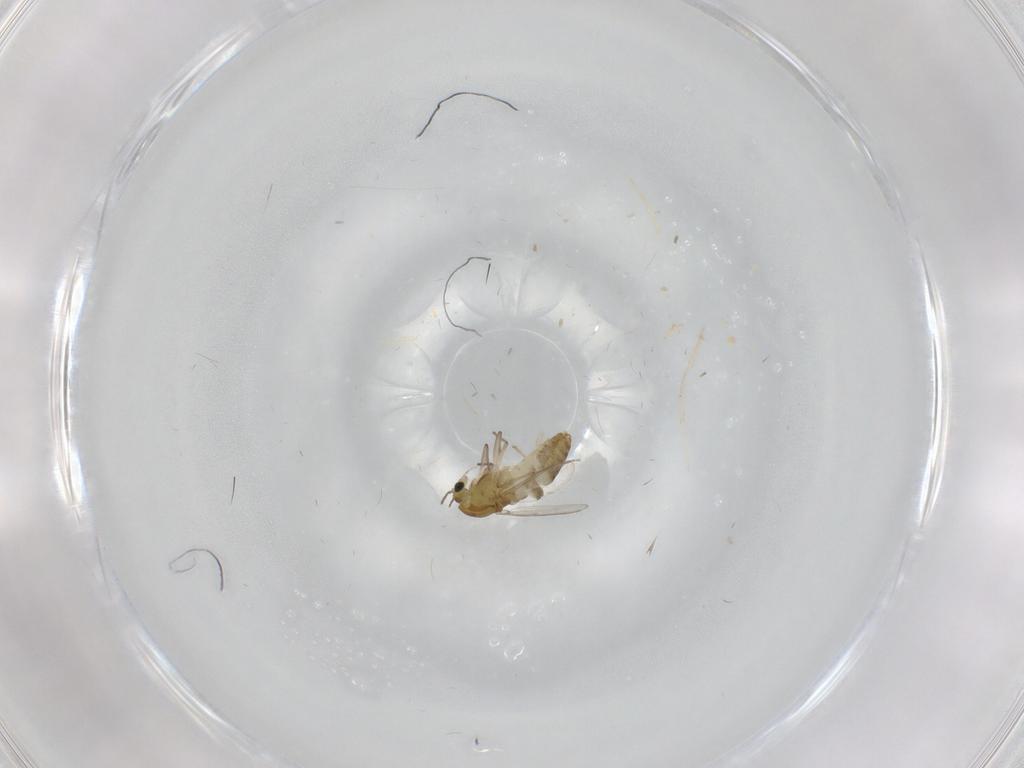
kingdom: Animalia
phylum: Arthropoda
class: Insecta
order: Diptera
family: Chironomidae
